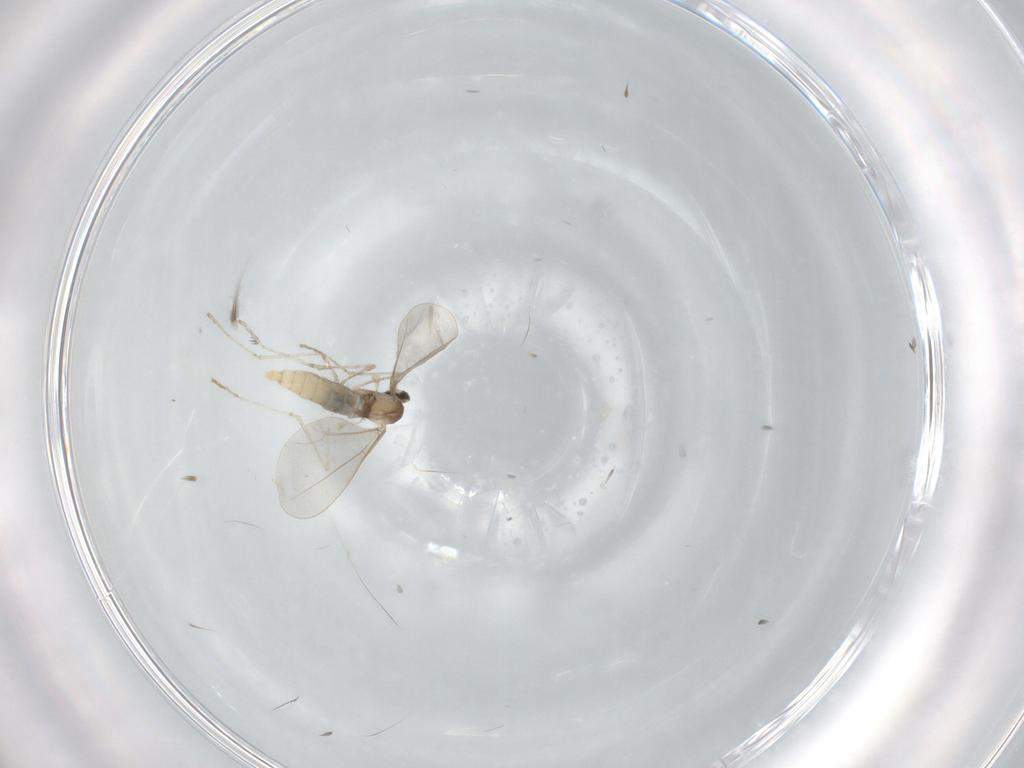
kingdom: Animalia
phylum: Arthropoda
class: Insecta
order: Diptera
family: Cecidomyiidae
